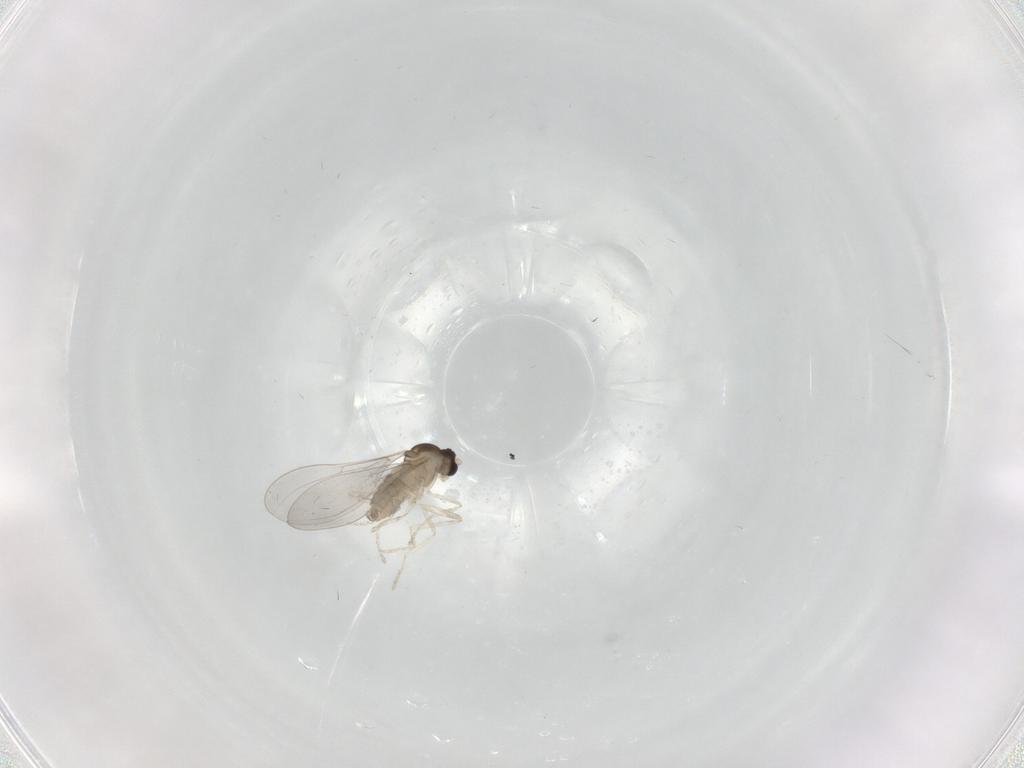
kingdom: Animalia
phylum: Arthropoda
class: Insecta
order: Diptera
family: Cecidomyiidae
